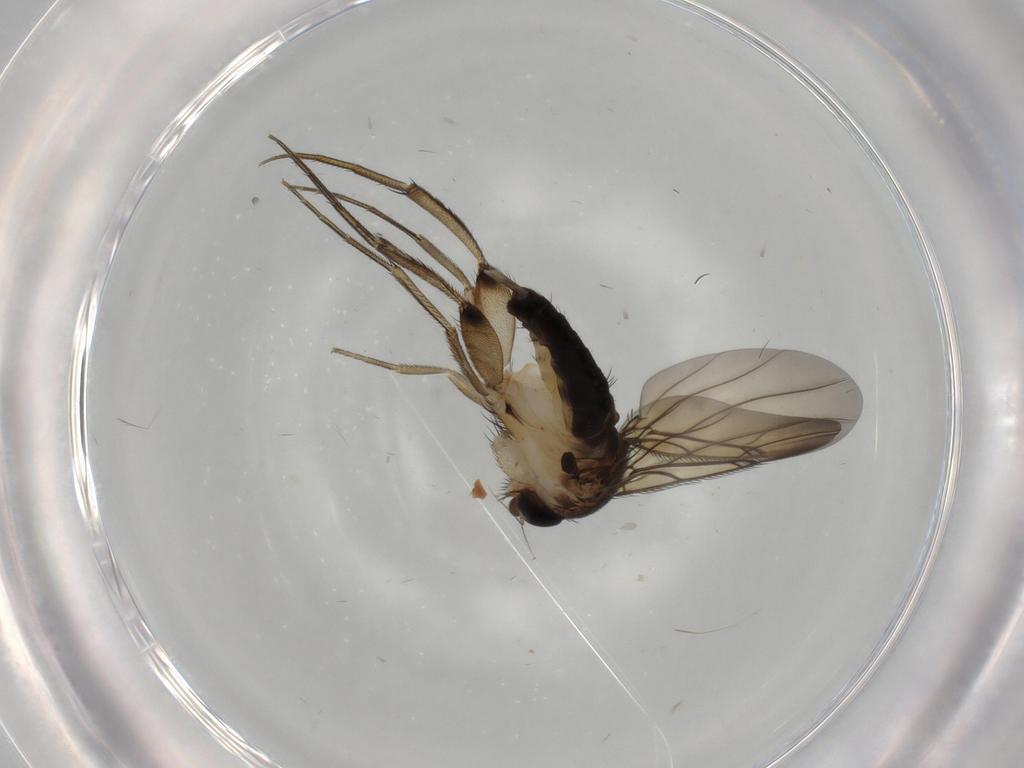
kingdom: Animalia
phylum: Arthropoda
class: Insecta
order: Diptera
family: Phoridae
